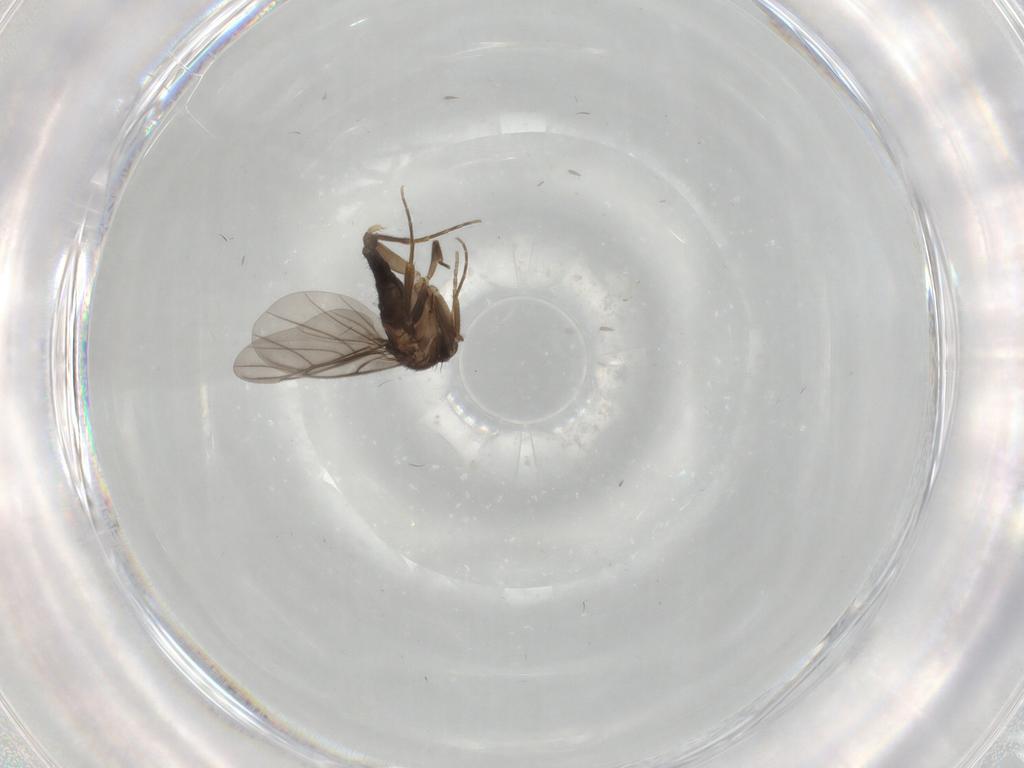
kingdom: Animalia
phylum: Arthropoda
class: Insecta
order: Diptera
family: Phoridae
